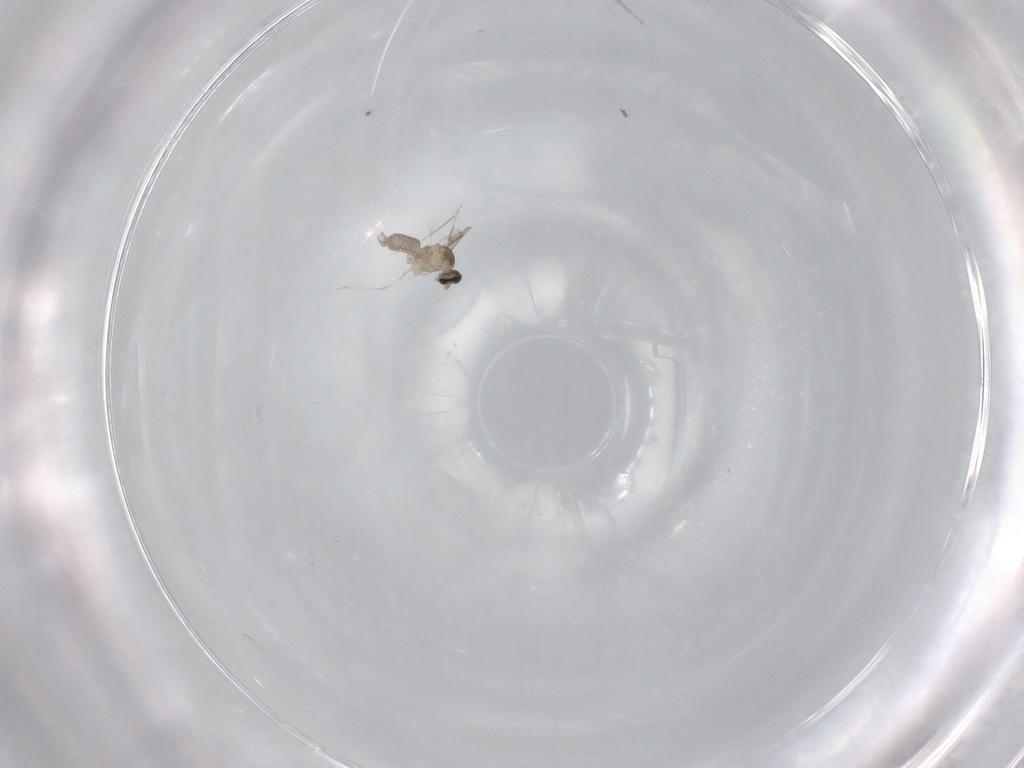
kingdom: Animalia
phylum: Arthropoda
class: Insecta
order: Diptera
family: Cecidomyiidae
